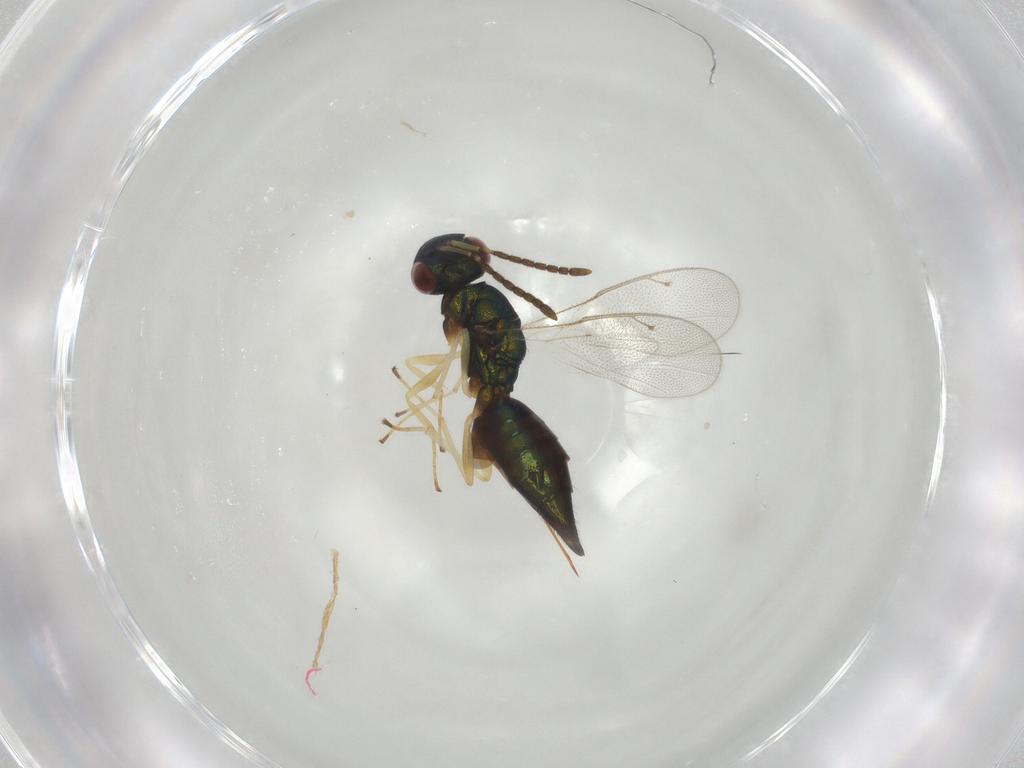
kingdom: Animalia
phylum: Arthropoda
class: Insecta
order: Hymenoptera
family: Pteromalidae
